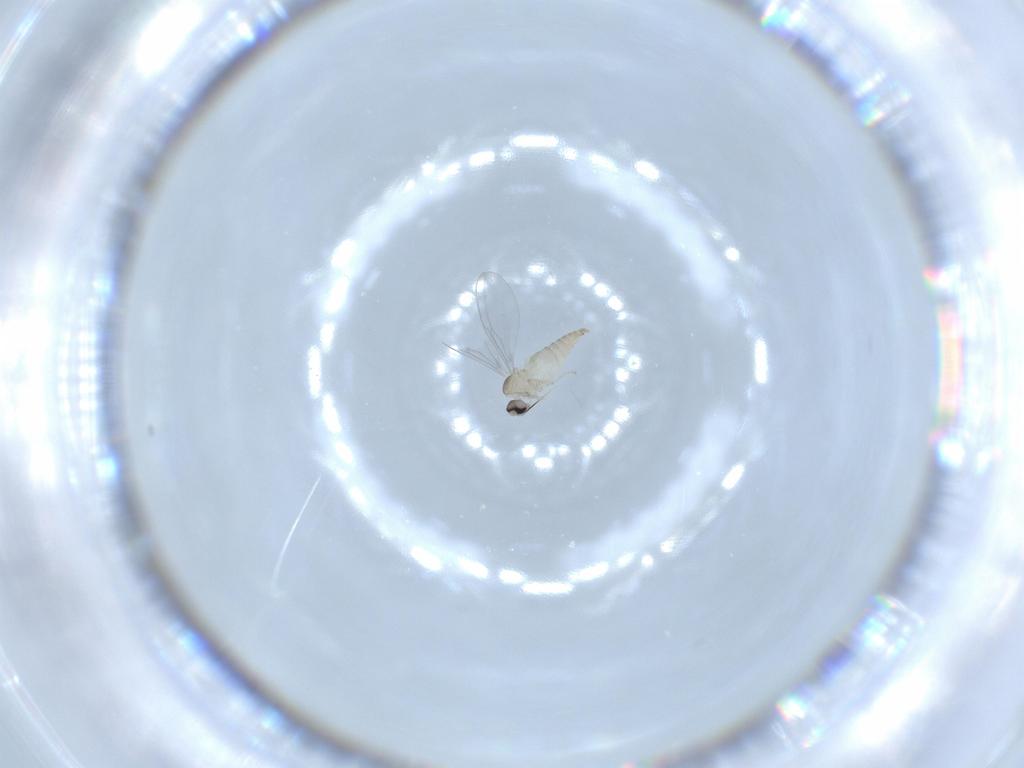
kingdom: Animalia
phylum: Arthropoda
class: Insecta
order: Diptera
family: Cecidomyiidae
